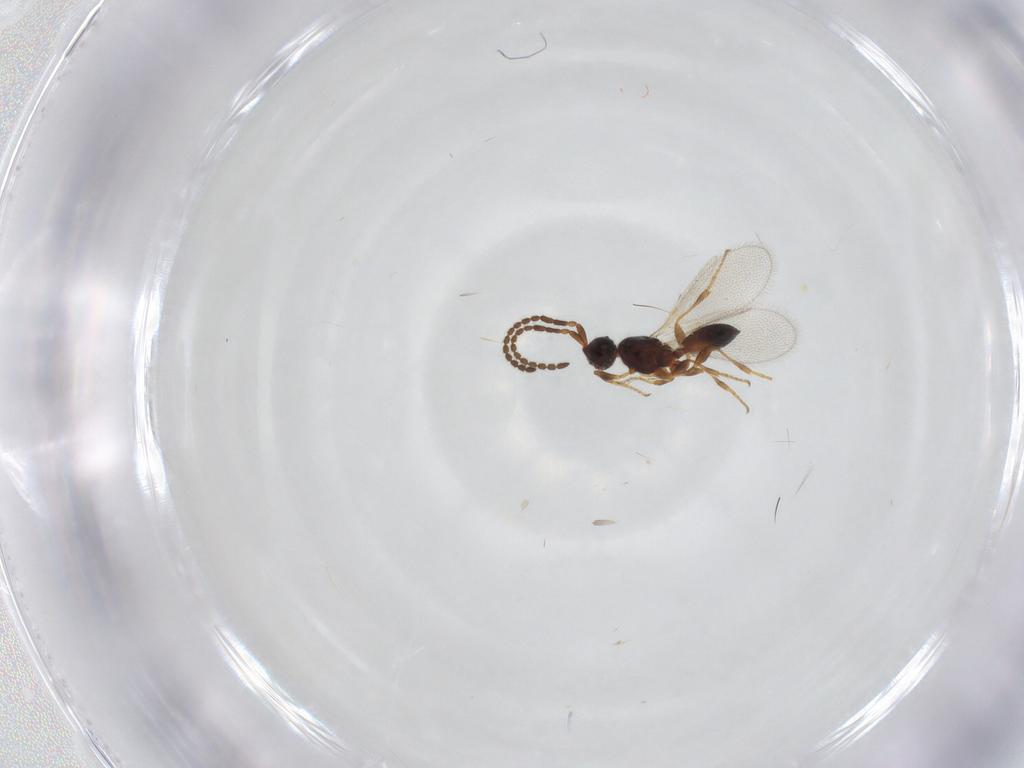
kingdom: Animalia
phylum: Arthropoda
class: Insecta
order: Hymenoptera
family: Diapriidae
